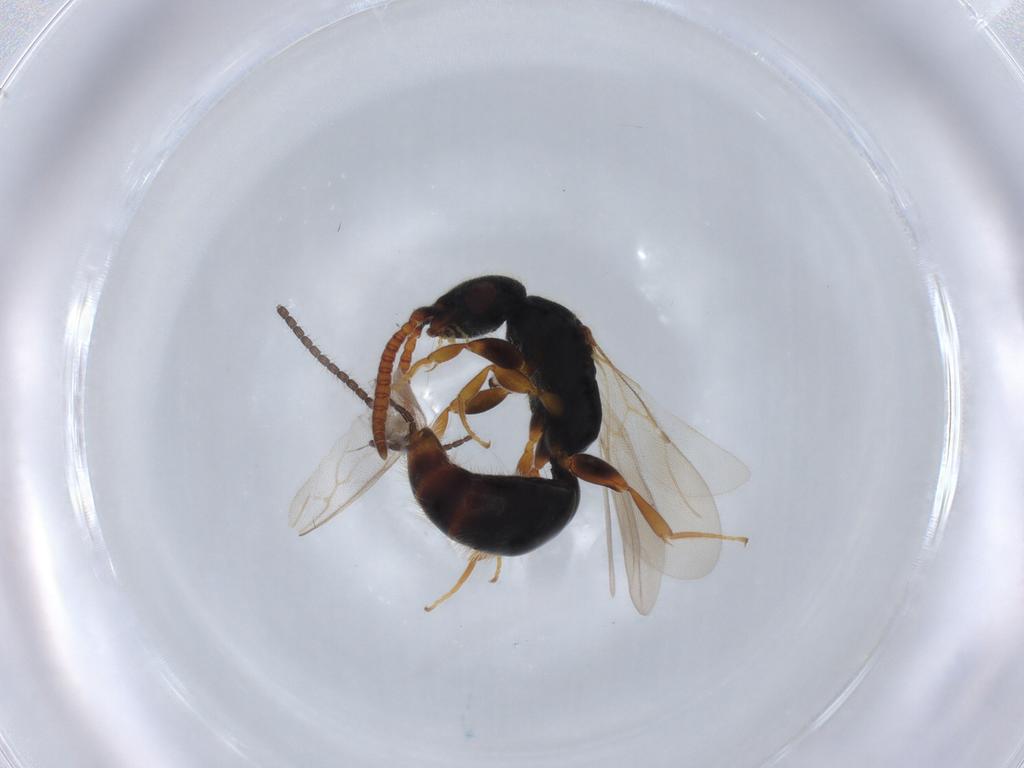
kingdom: Animalia
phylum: Arthropoda
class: Insecta
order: Hymenoptera
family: Bethylidae
